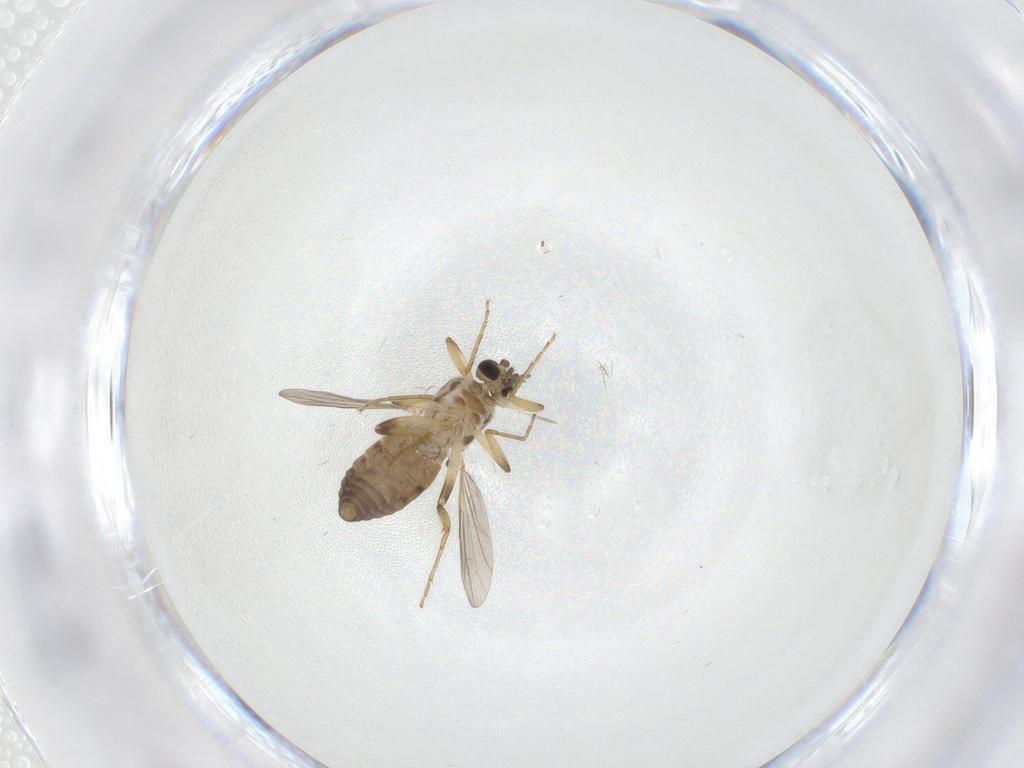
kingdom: Animalia
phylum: Arthropoda
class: Insecta
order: Diptera
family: Ceratopogonidae
